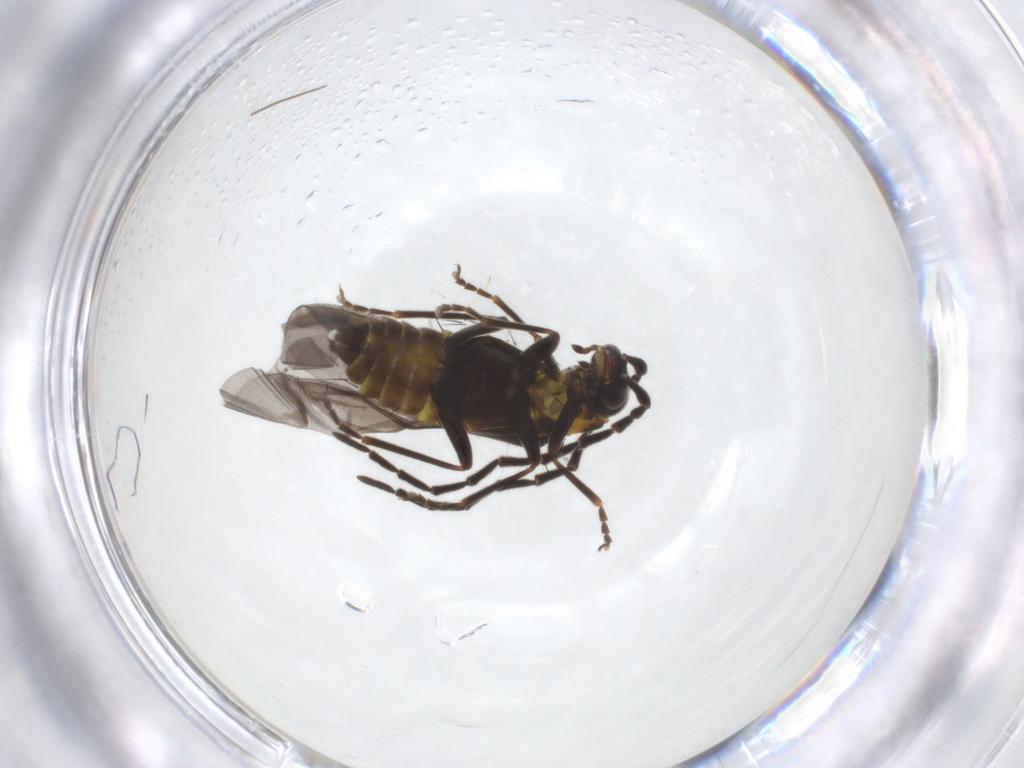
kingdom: Animalia
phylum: Arthropoda
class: Insecta
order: Coleoptera
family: Cantharidae
